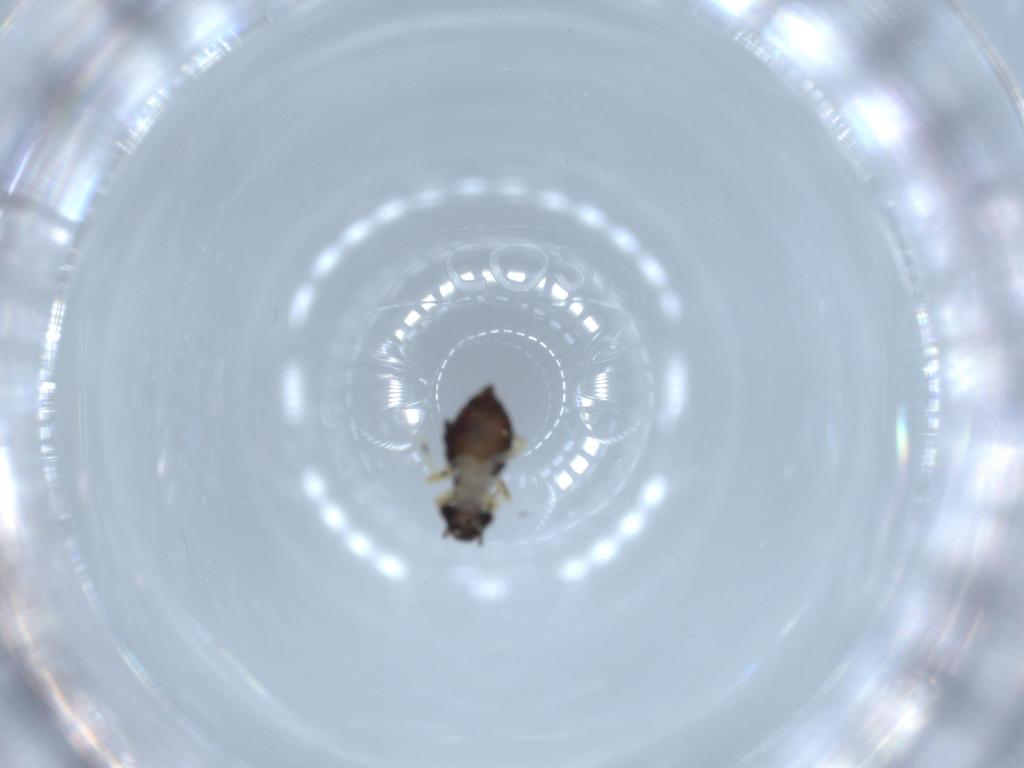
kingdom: Animalia
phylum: Arthropoda
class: Insecta
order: Psocodea
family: Psoquillidae
